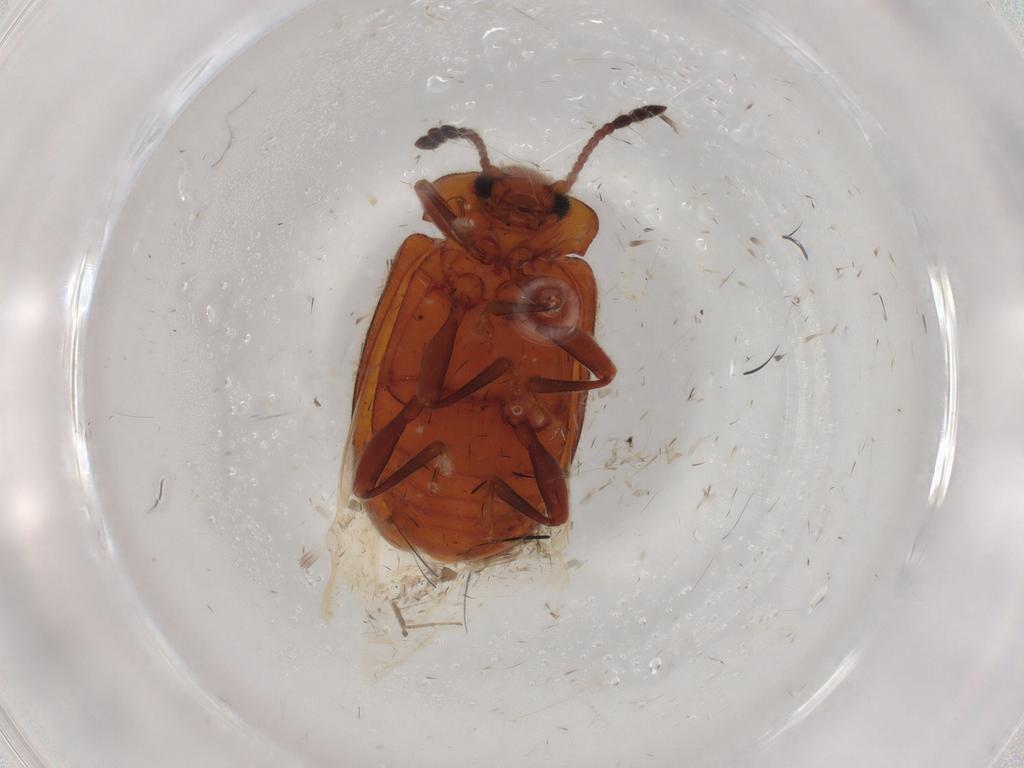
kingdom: Animalia
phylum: Arthropoda
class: Insecta
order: Coleoptera
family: Endomychidae
